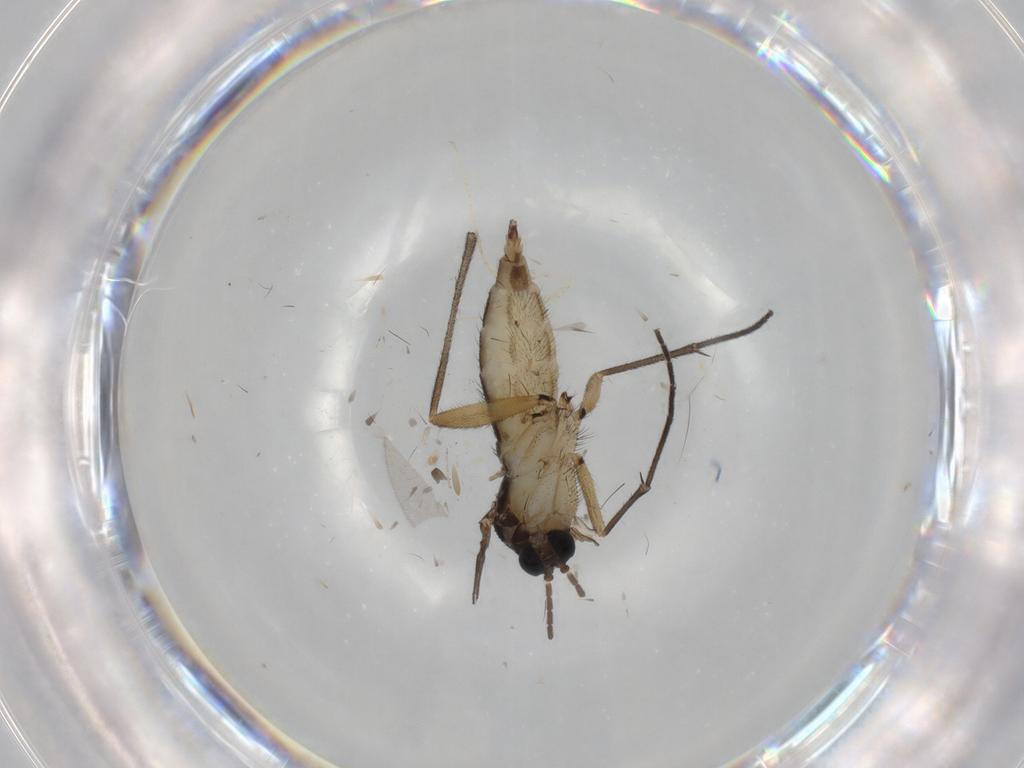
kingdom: Animalia
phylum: Arthropoda
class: Insecta
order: Diptera
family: Sciaridae
